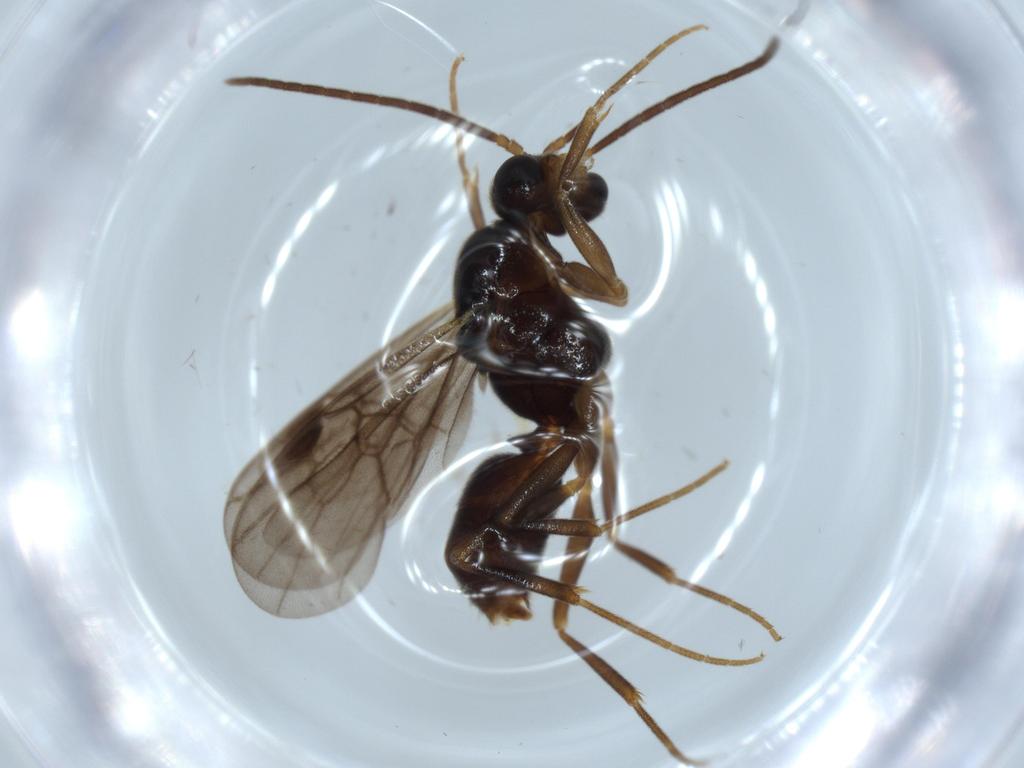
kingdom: Animalia
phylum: Arthropoda
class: Insecta
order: Hymenoptera
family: Formicidae
